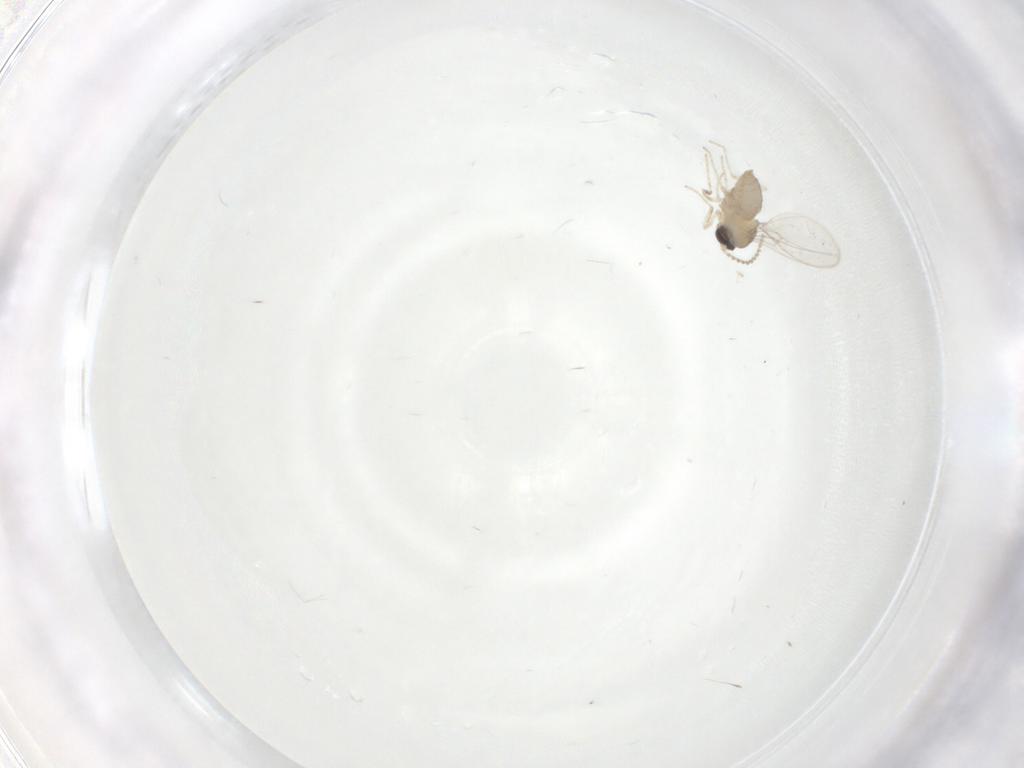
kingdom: Animalia
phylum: Arthropoda
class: Insecta
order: Diptera
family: Cecidomyiidae
